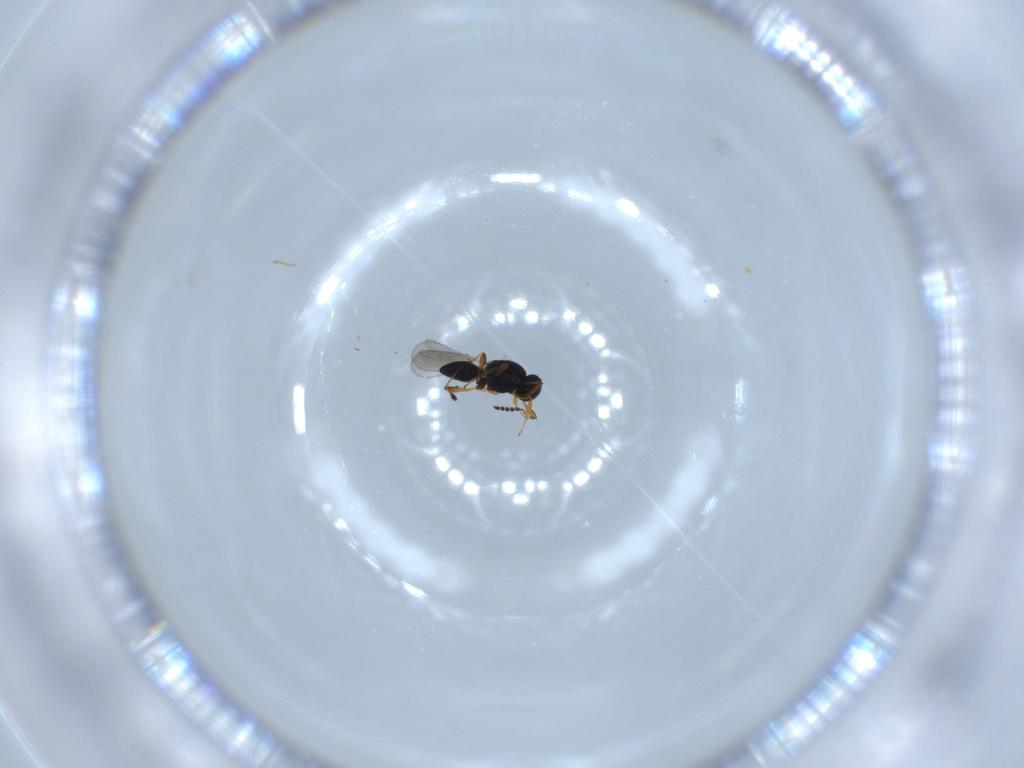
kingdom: Animalia
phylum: Arthropoda
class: Insecta
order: Hymenoptera
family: Platygastridae
